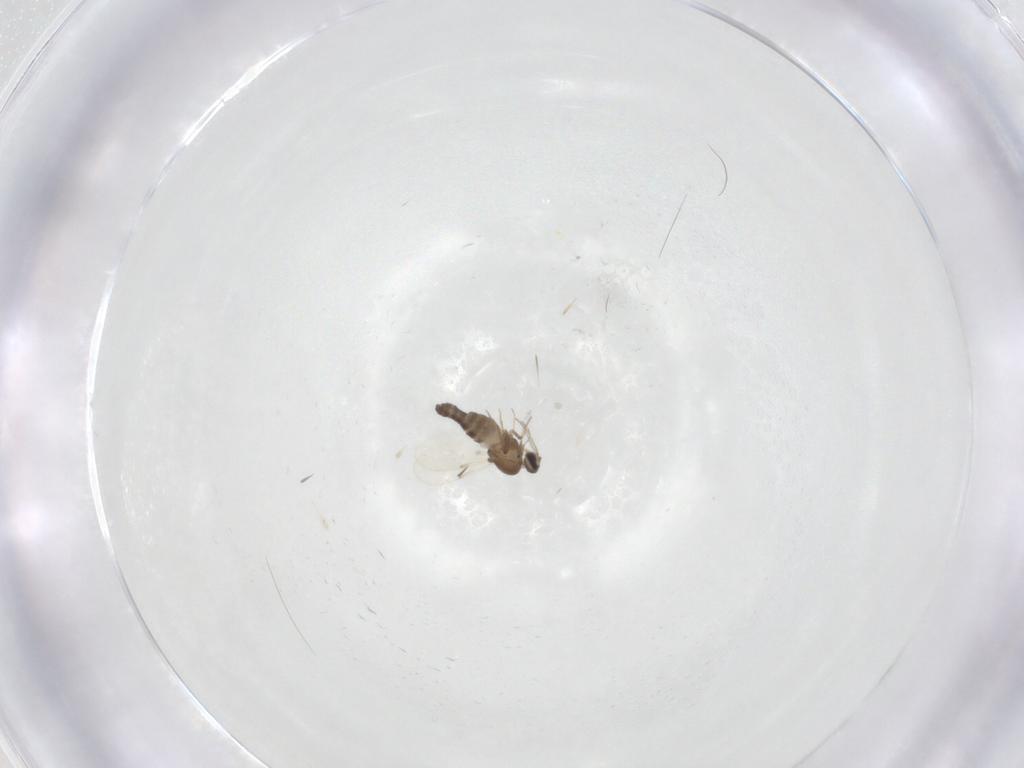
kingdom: Animalia
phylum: Arthropoda
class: Insecta
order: Diptera
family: Ceratopogonidae
